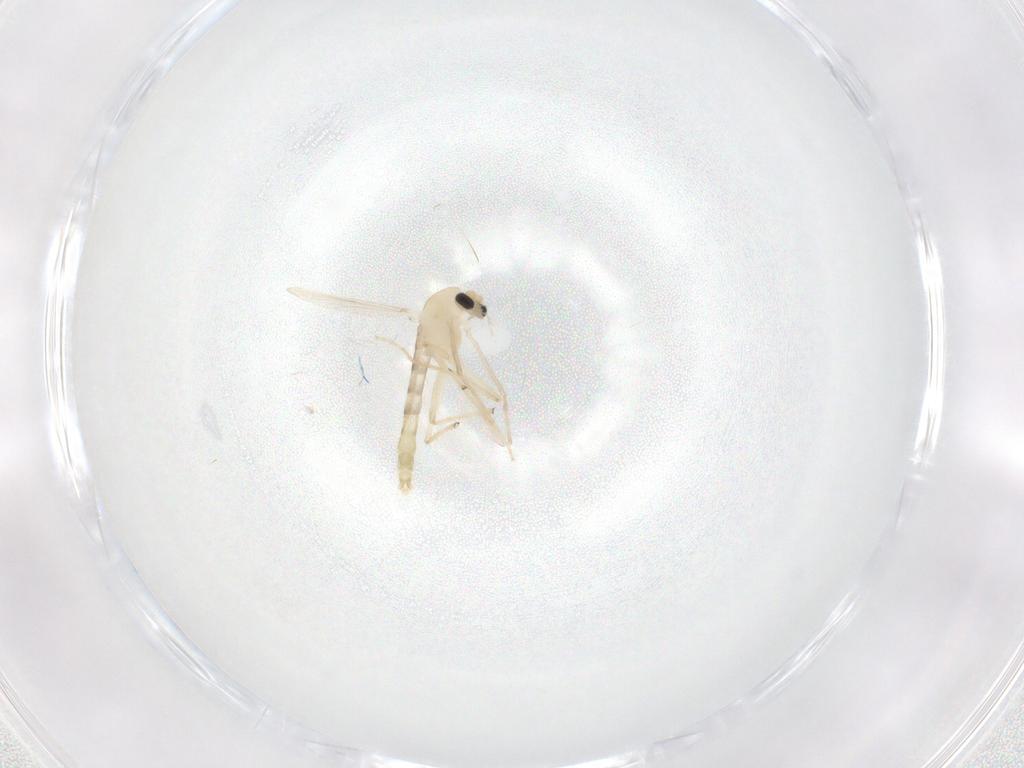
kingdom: Animalia
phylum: Arthropoda
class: Insecta
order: Diptera
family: Chironomidae
